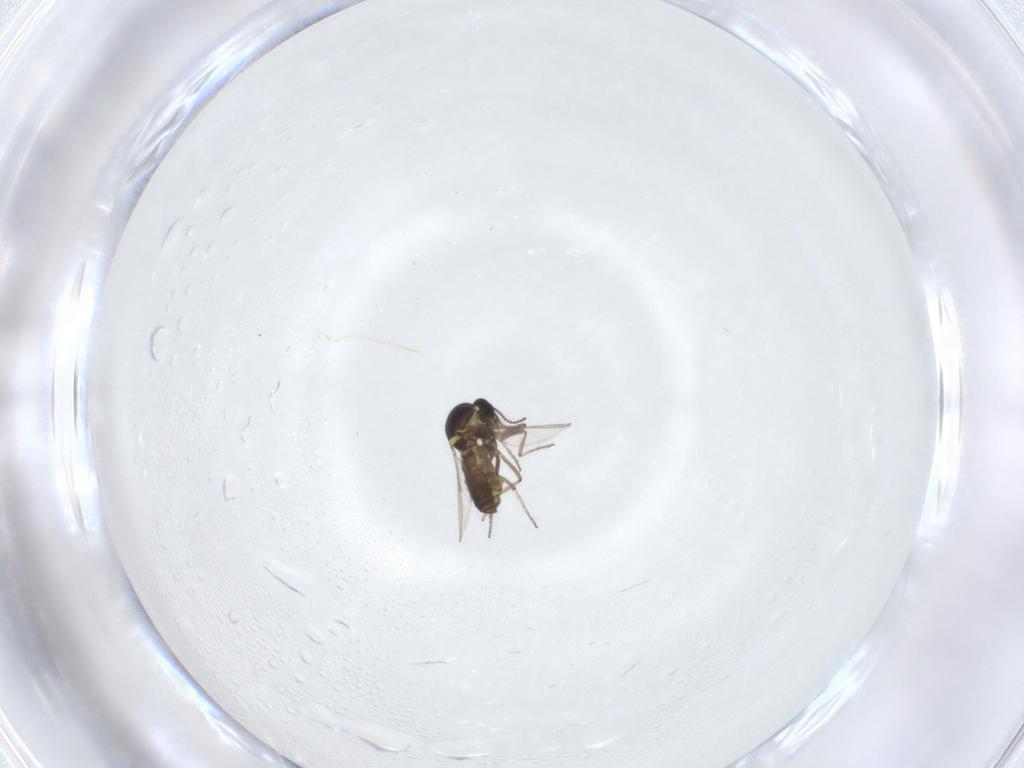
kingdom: Animalia
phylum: Arthropoda
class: Insecta
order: Diptera
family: Ceratopogonidae
